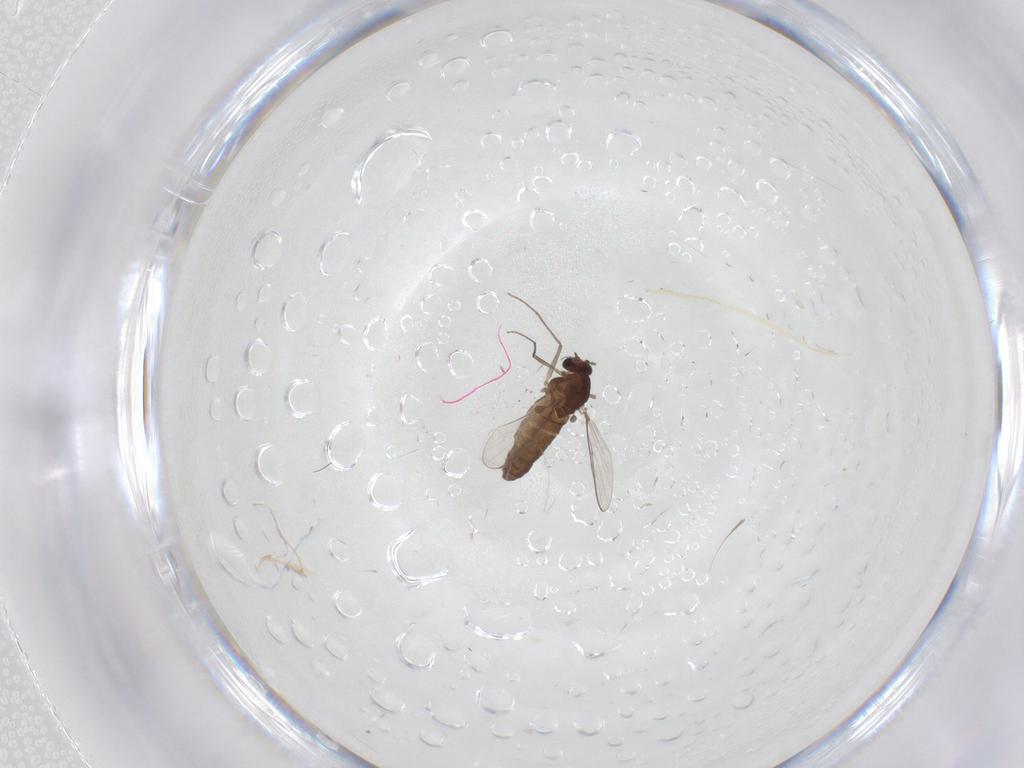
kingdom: Animalia
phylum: Arthropoda
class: Insecta
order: Diptera
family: Chironomidae
